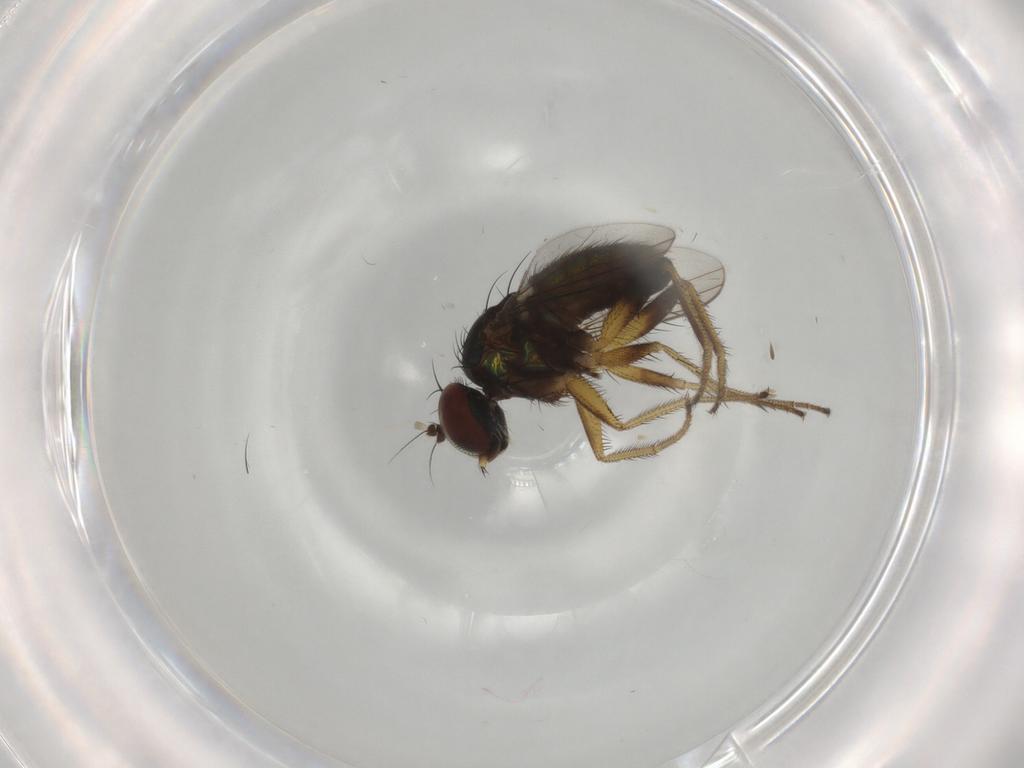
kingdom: Animalia
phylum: Arthropoda
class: Insecta
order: Diptera
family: Dolichopodidae
